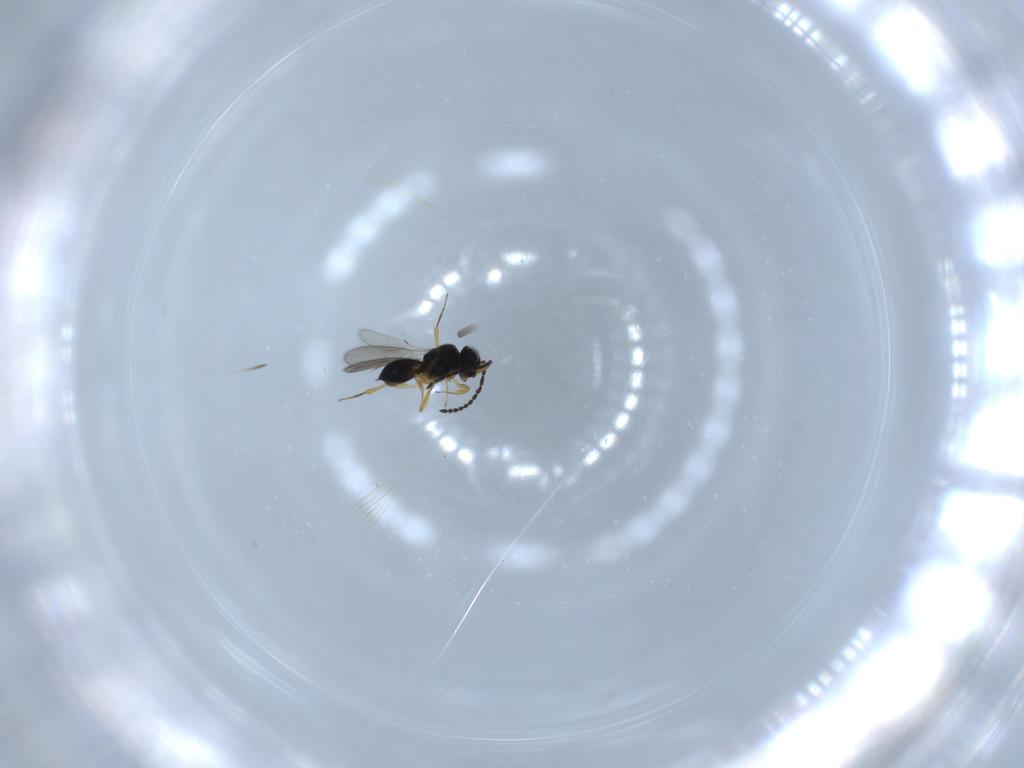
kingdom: Animalia
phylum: Arthropoda
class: Insecta
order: Hymenoptera
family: Scelionidae
